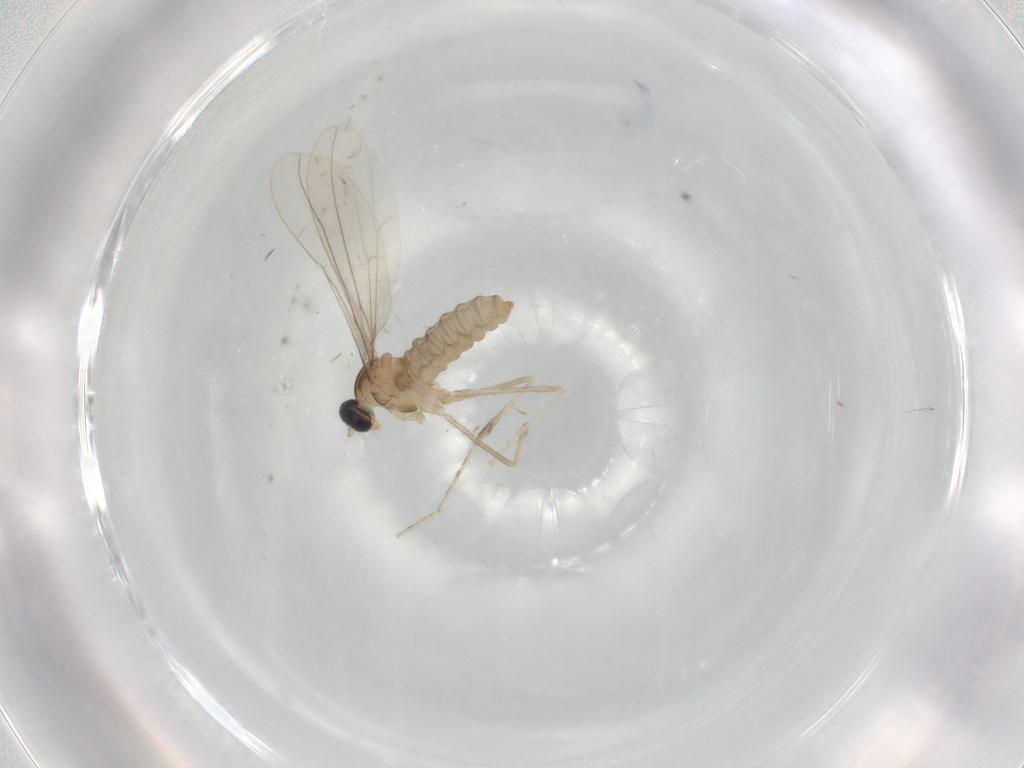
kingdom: Animalia
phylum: Arthropoda
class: Insecta
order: Diptera
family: Cecidomyiidae
